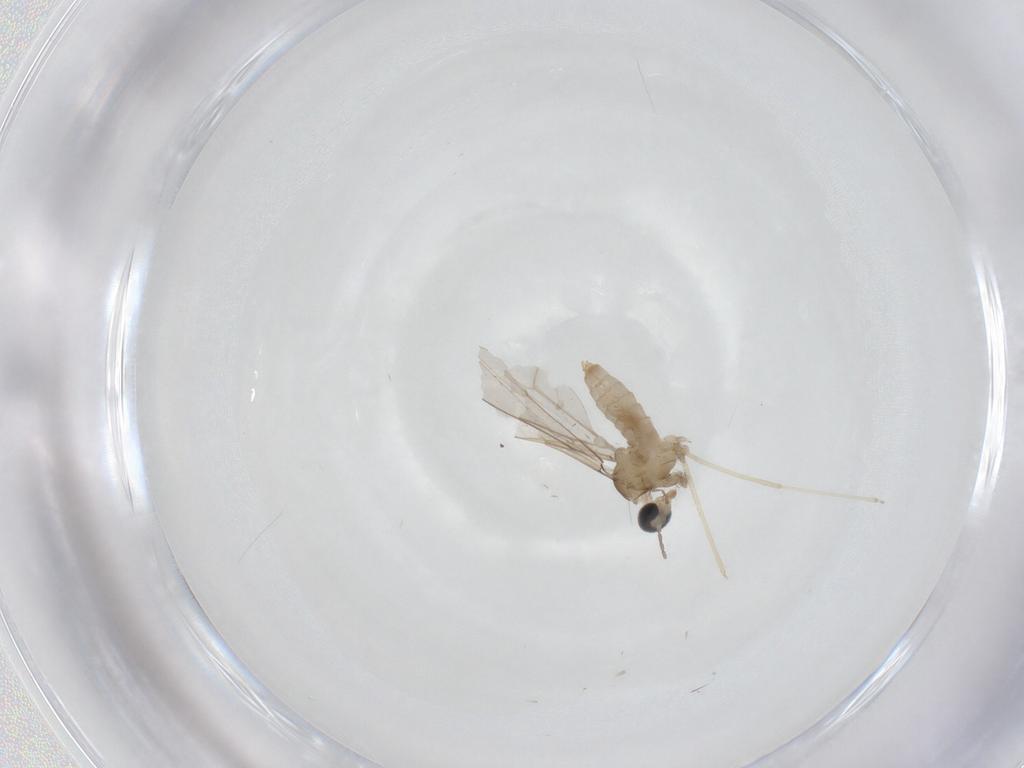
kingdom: Animalia
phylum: Arthropoda
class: Insecta
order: Diptera
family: Cecidomyiidae
